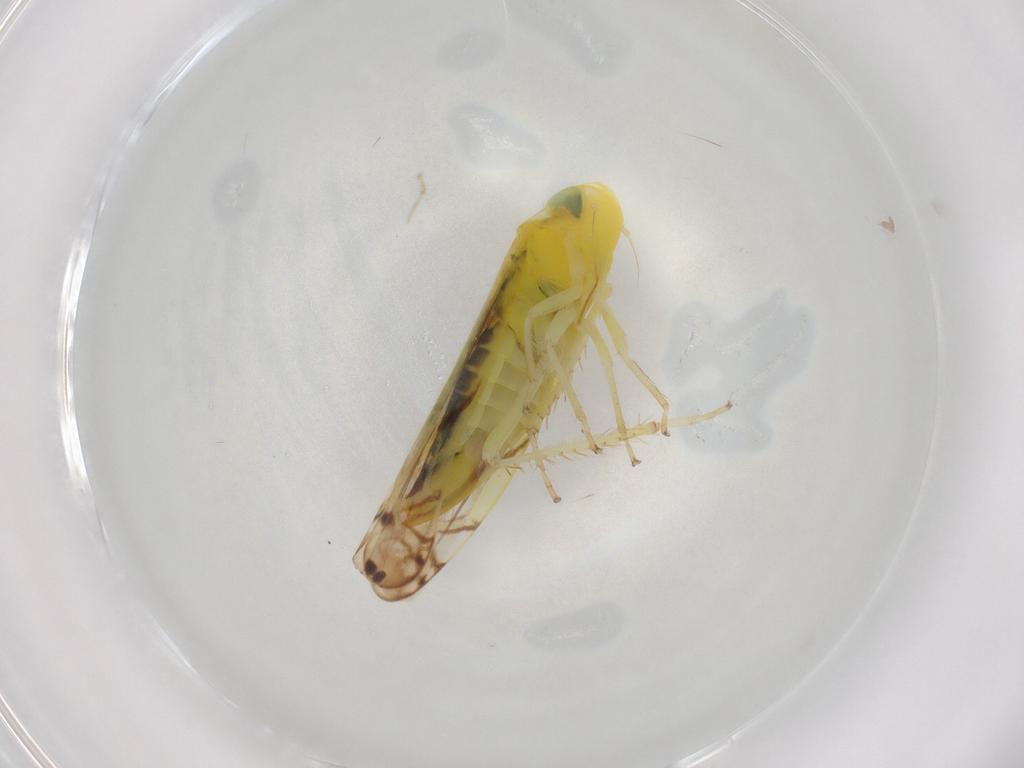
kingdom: Animalia
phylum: Arthropoda
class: Insecta
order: Hemiptera
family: Cicadellidae
